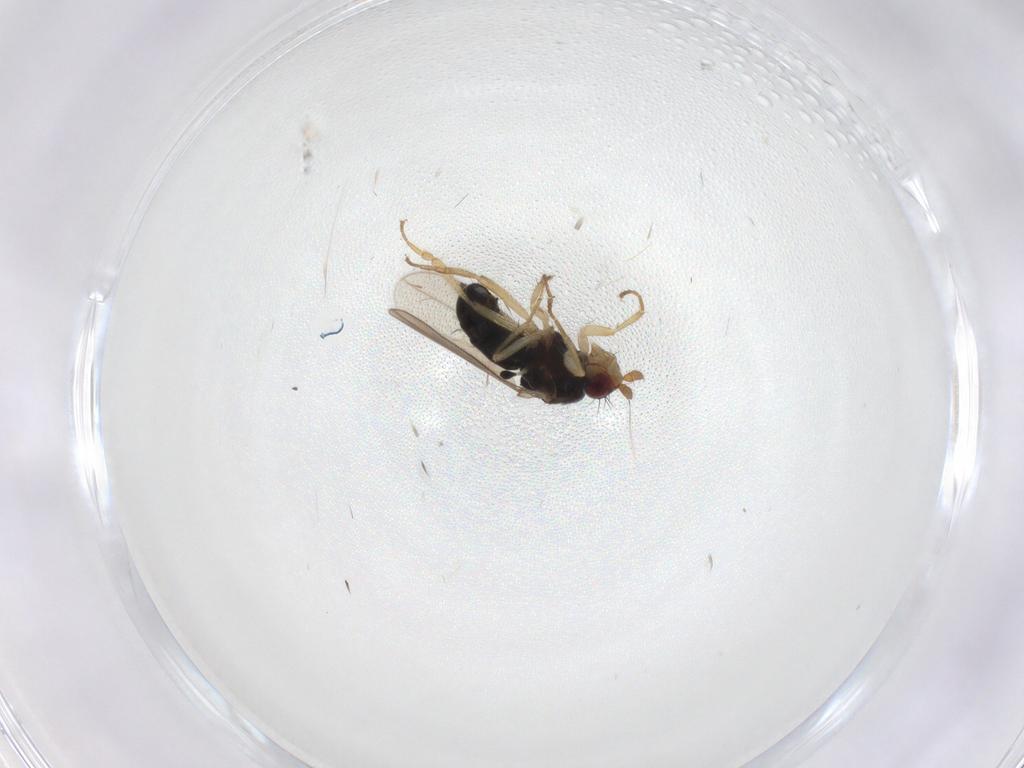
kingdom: Animalia
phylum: Arthropoda
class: Insecta
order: Diptera
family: Sphaeroceridae
